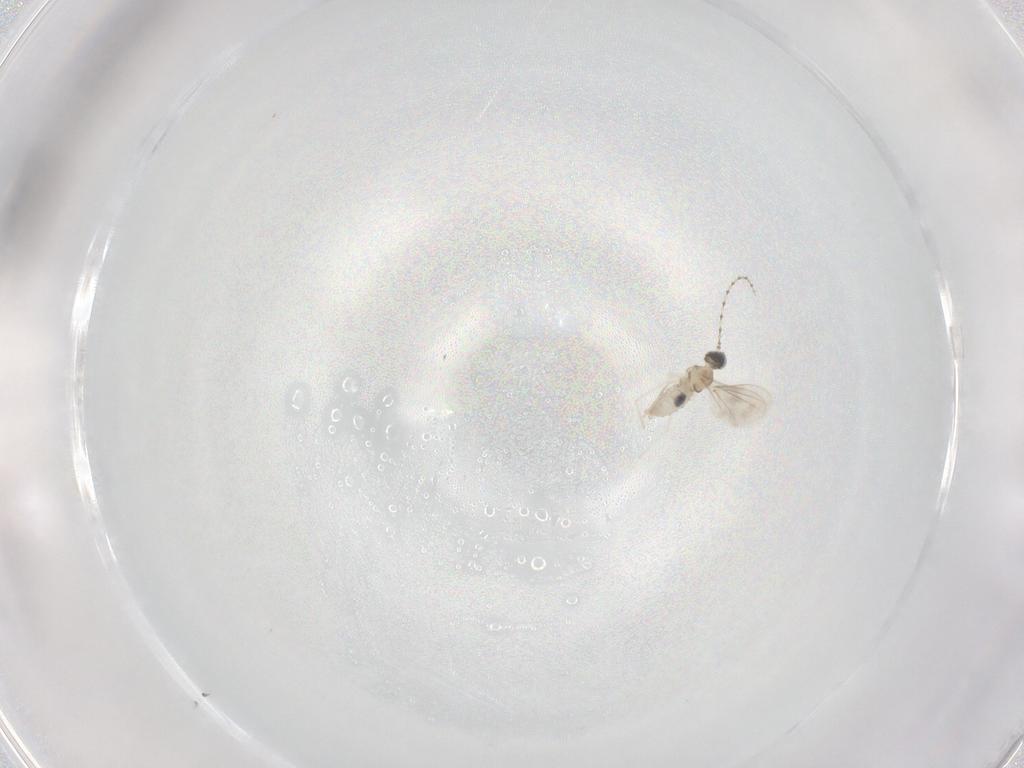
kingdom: Animalia
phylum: Arthropoda
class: Insecta
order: Diptera
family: Cecidomyiidae
